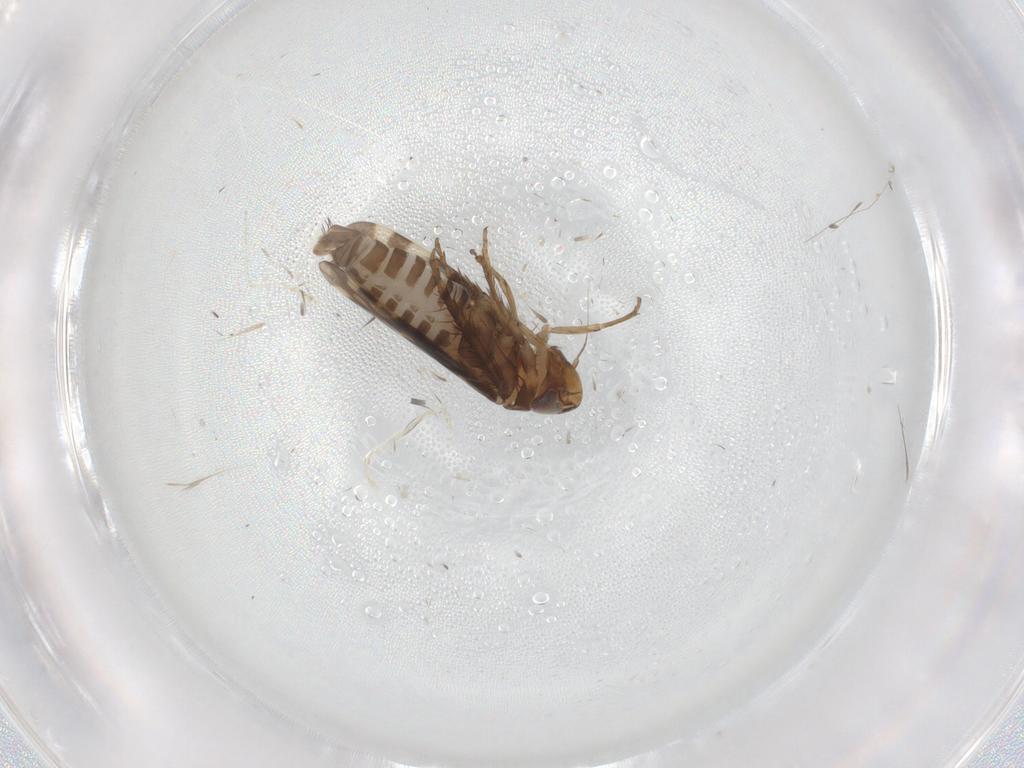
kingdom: Animalia
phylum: Arthropoda
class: Insecta
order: Hemiptera
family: Cicadellidae
